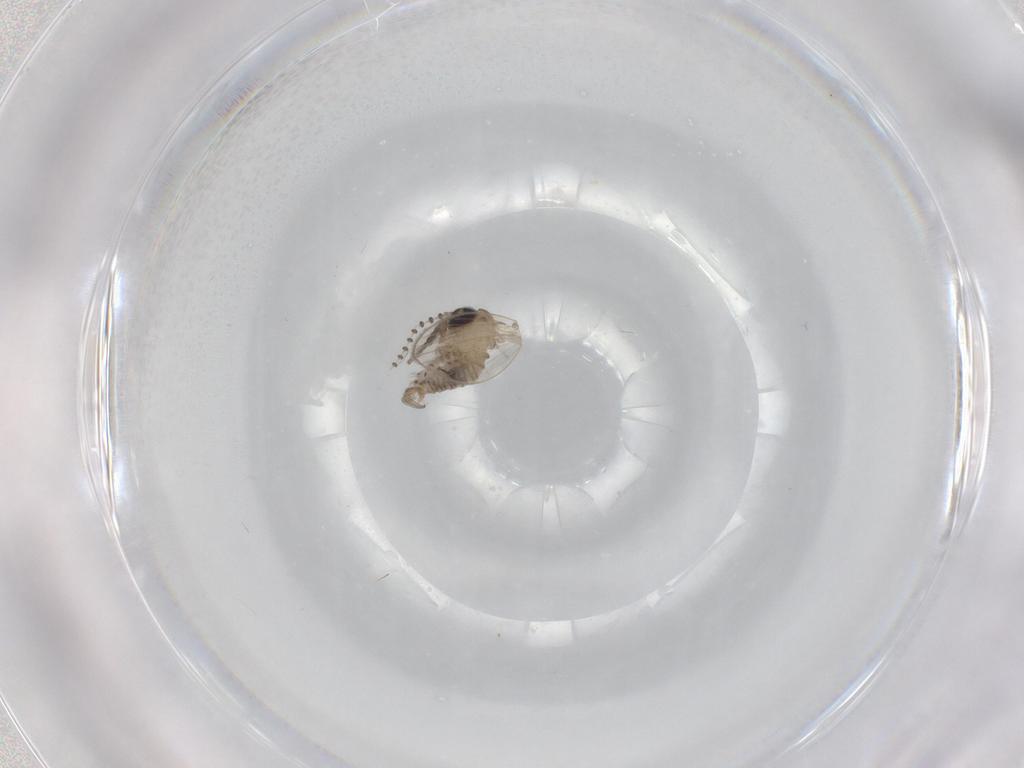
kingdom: Animalia
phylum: Arthropoda
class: Insecta
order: Diptera
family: Psychodidae
